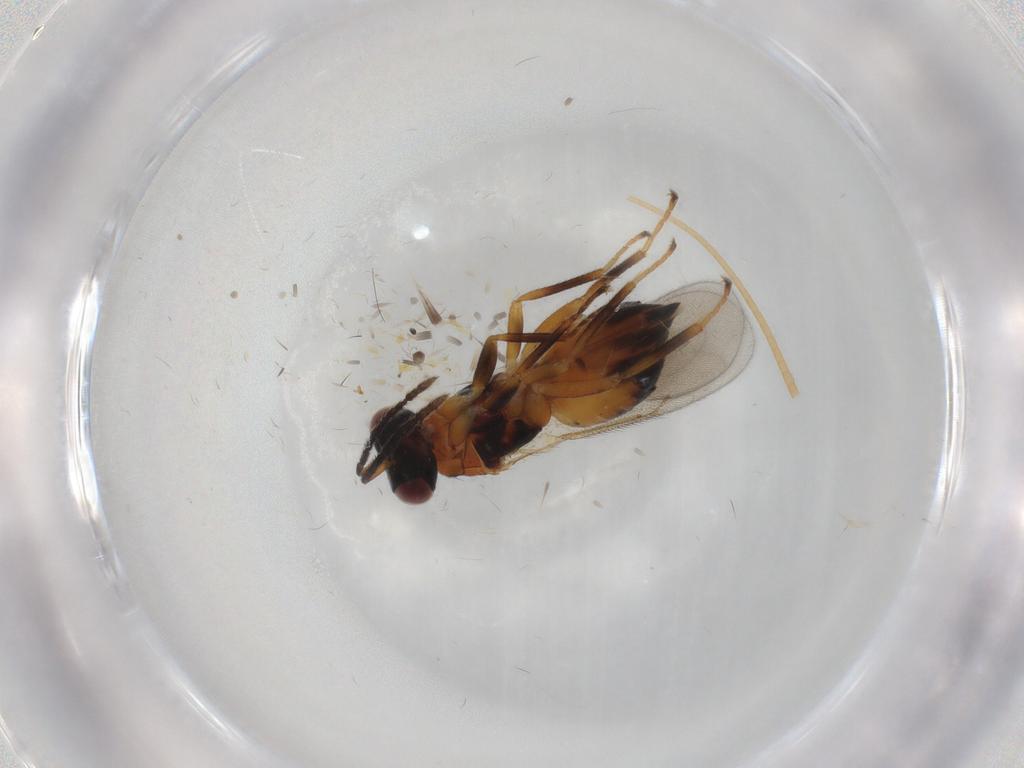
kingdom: Animalia
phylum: Arthropoda
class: Insecta
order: Hymenoptera
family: Eulophidae
